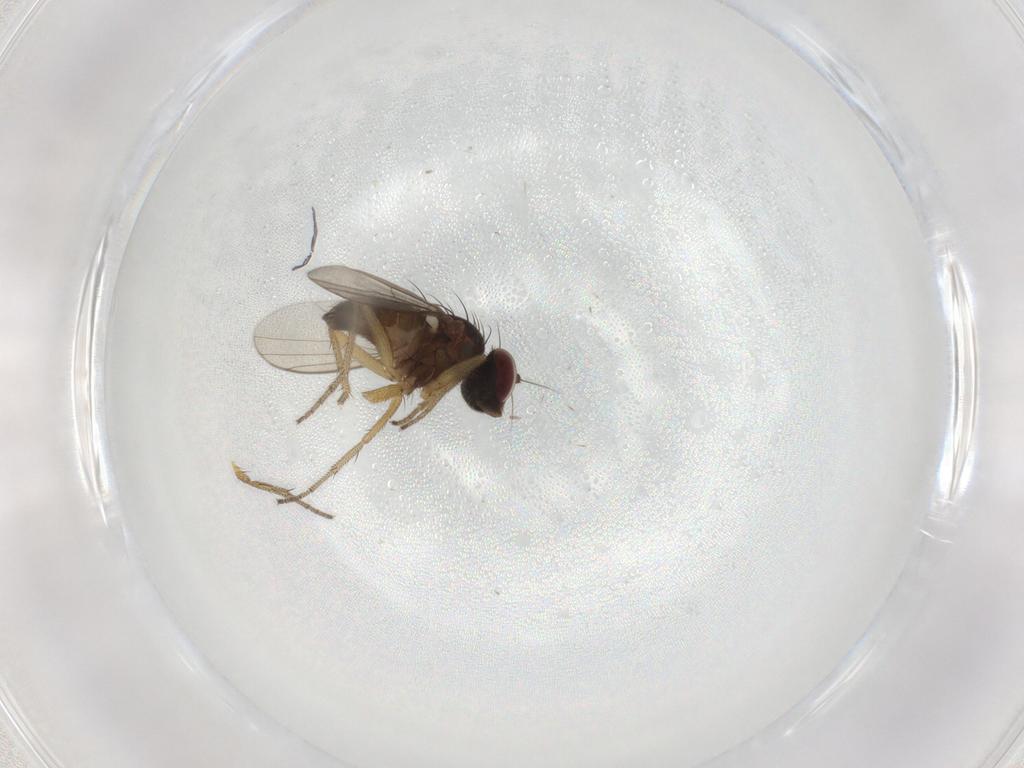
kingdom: Animalia
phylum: Arthropoda
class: Insecta
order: Diptera
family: Dolichopodidae
